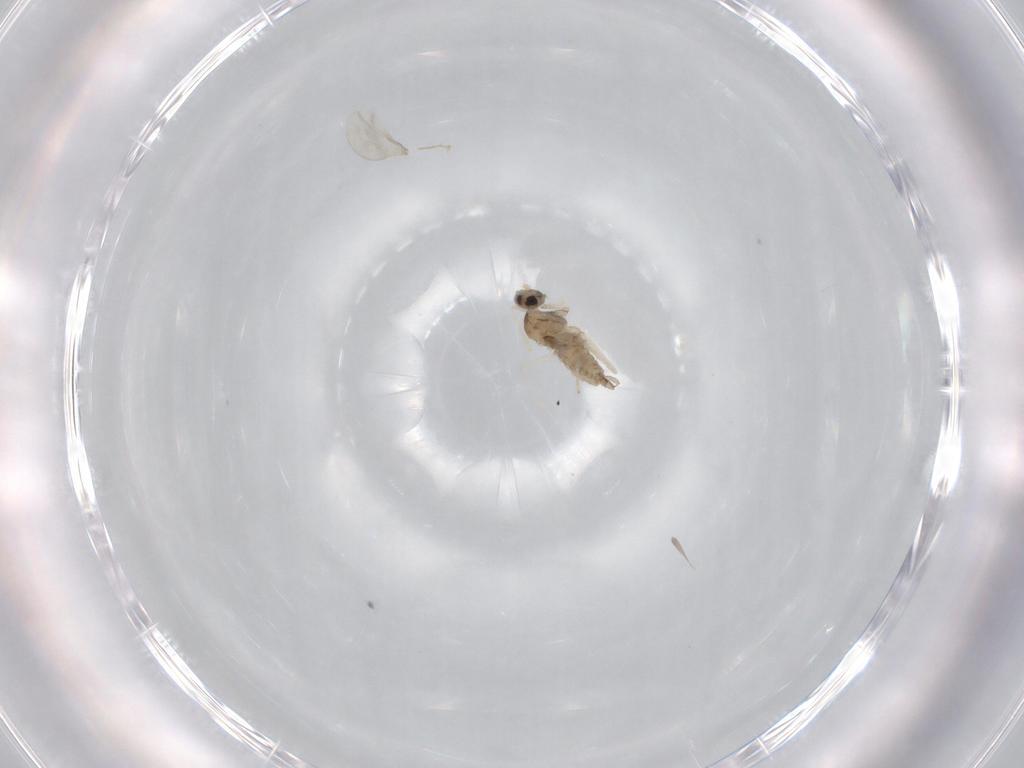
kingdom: Animalia
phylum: Arthropoda
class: Insecta
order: Diptera
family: Cecidomyiidae
